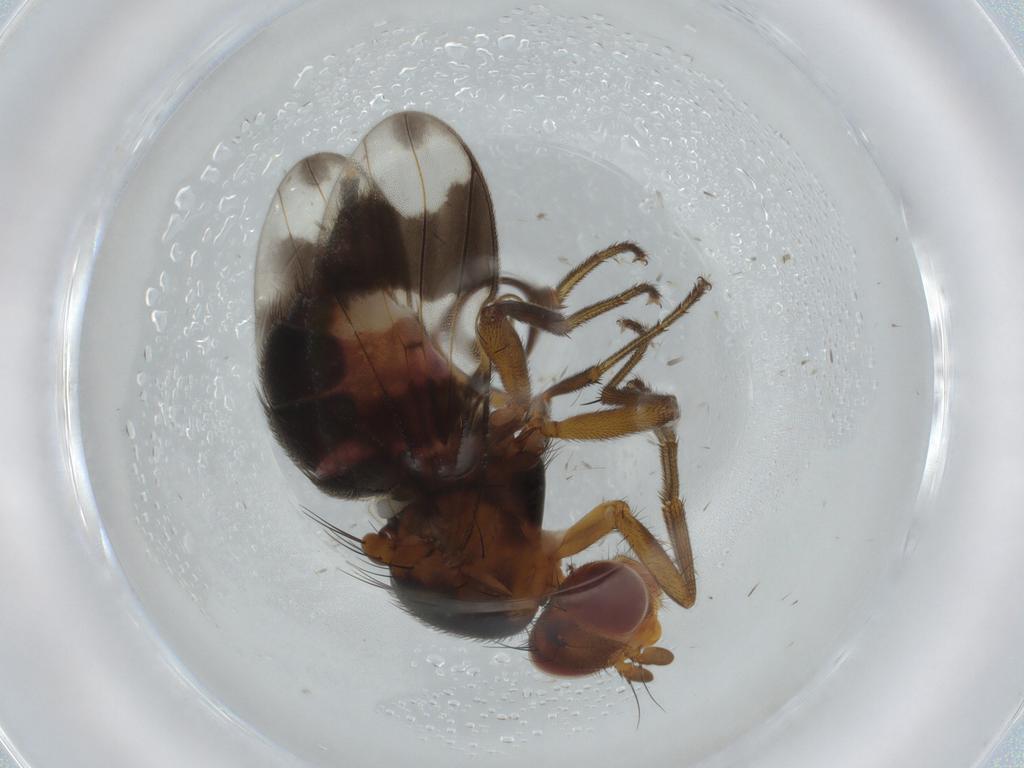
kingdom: Animalia
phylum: Arthropoda
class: Insecta
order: Diptera
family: Richardiidae
